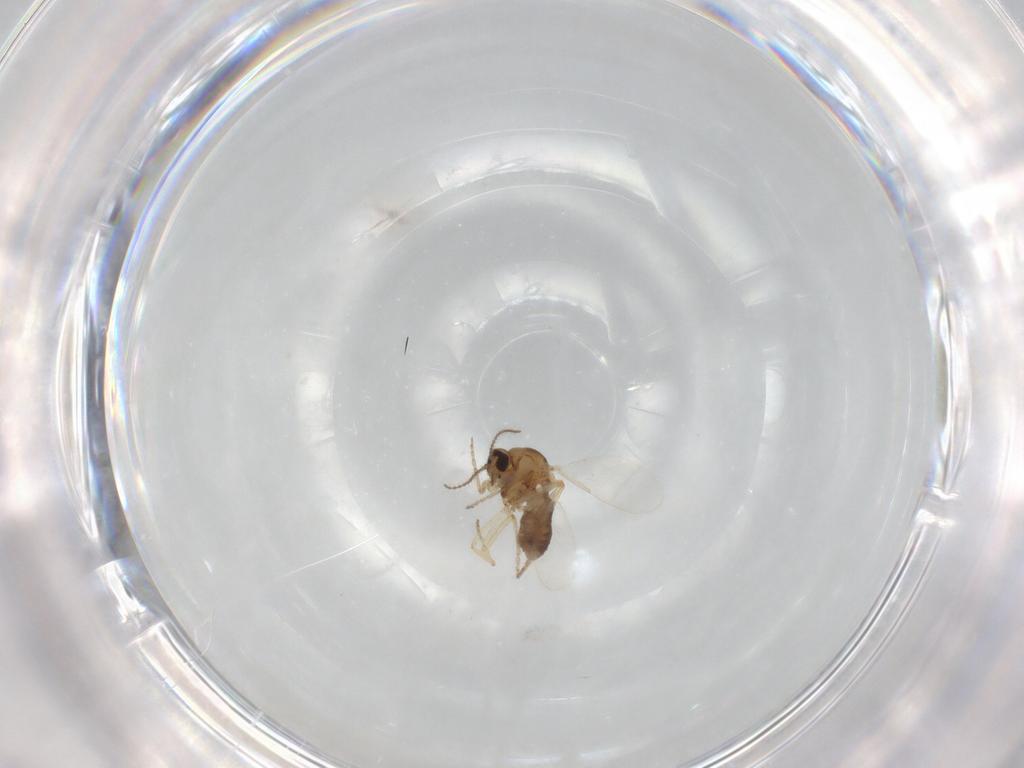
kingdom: Animalia
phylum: Arthropoda
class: Insecta
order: Diptera
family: Ceratopogonidae
